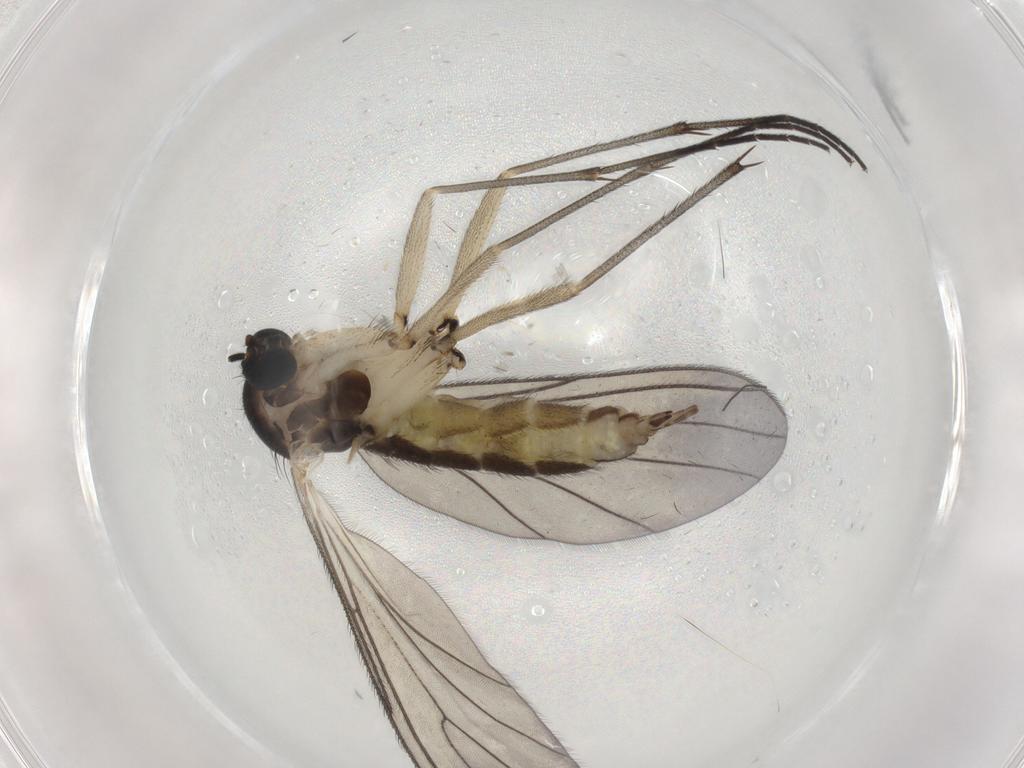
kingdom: Animalia
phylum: Arthropoda
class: Insecta
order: Diptera
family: Sciaridae
